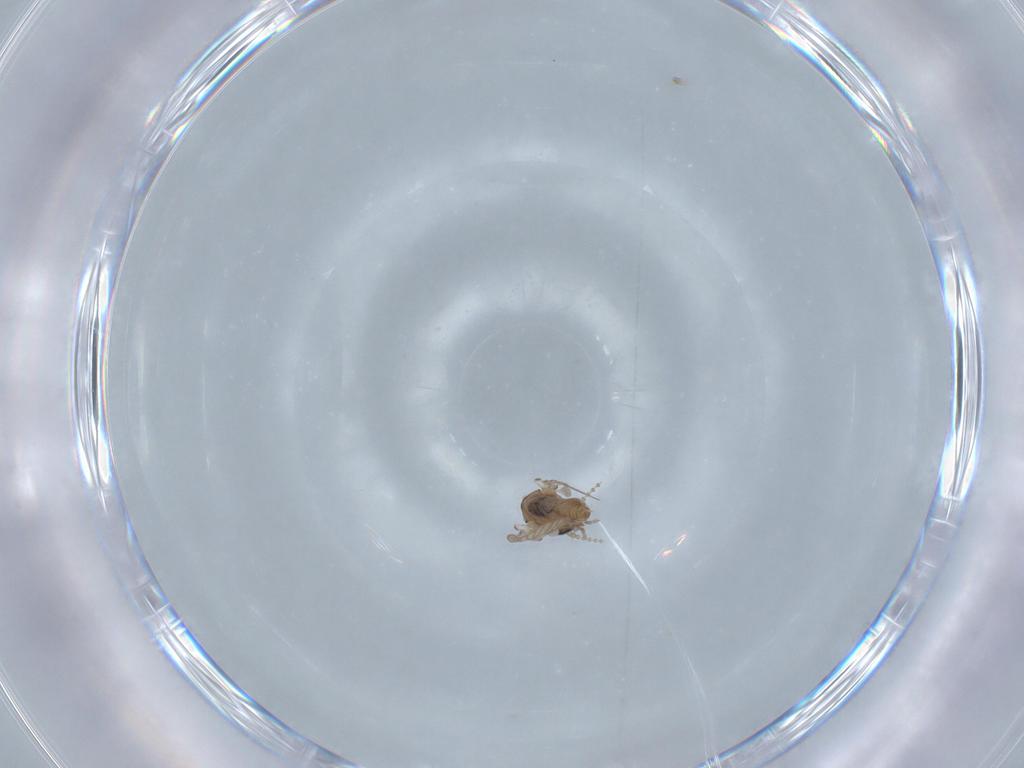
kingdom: Animalia
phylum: Arthropoda
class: Insecta
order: Diptera
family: Psychodidae
